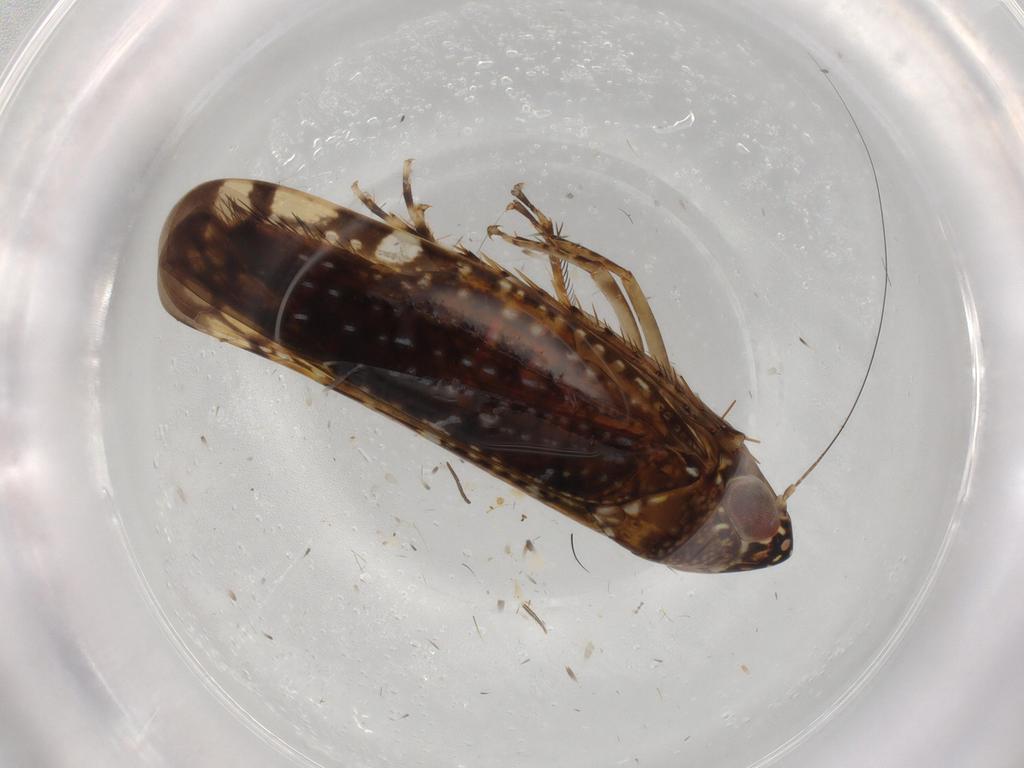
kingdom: Animalia
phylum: Arthropoda
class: Insecta
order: Hemiptera
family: Cicadellidae
